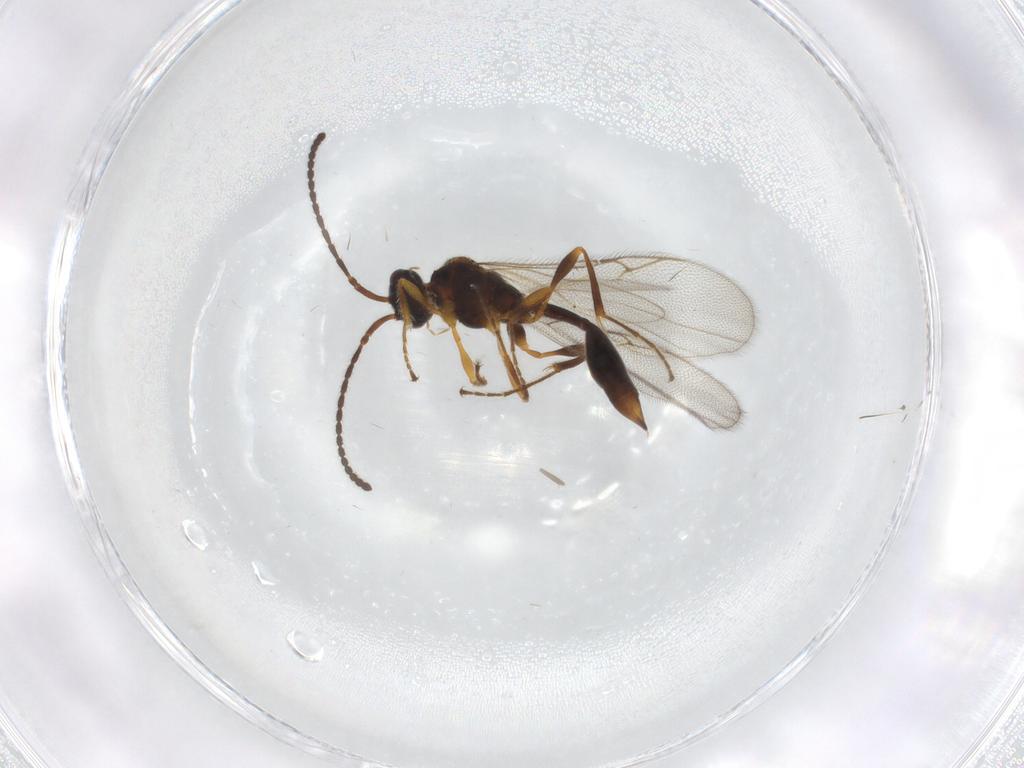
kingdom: Animalia
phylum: Arthropoda
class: Insecta
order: Hymenoptera
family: Diapriidae
